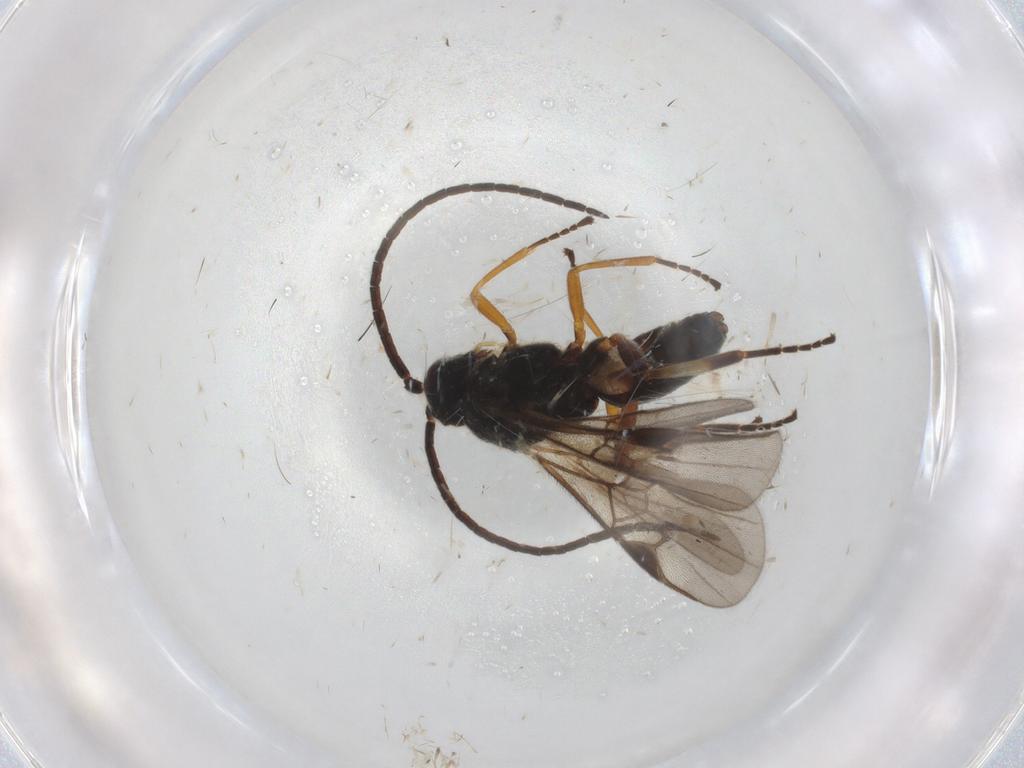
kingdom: Animalia
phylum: Arthropoda
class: Insecta
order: Hymenoptera
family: Braconidae
